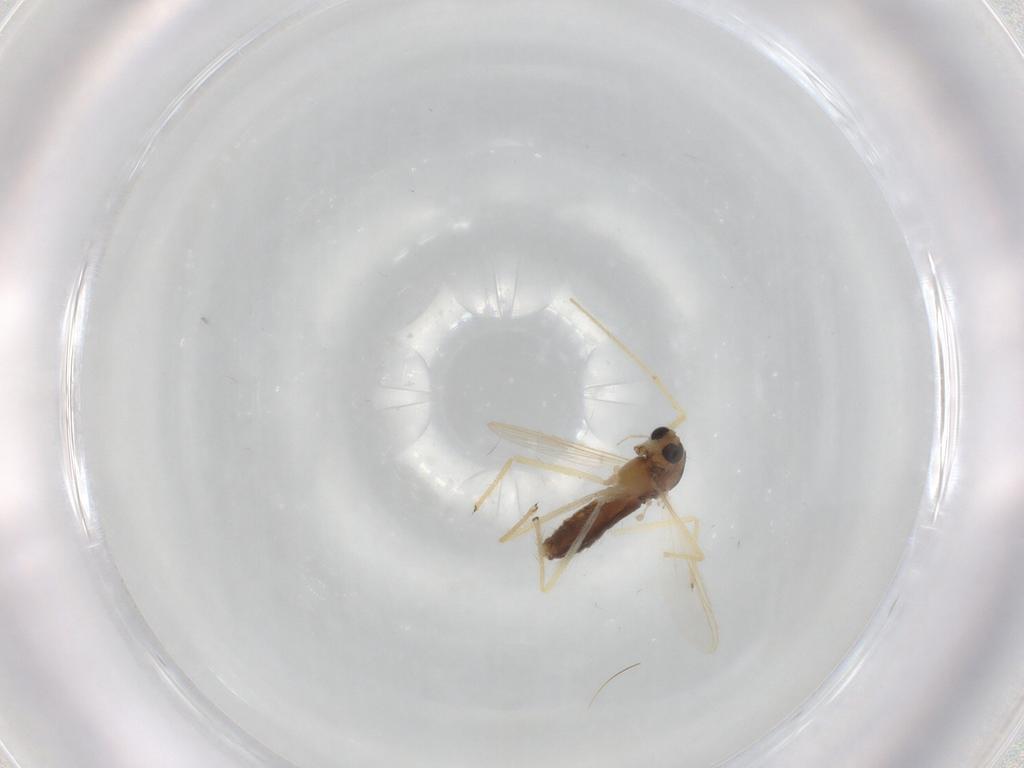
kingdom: Animalia
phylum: Arthropoda
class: Insecta
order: Diptera
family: Chironomidae
